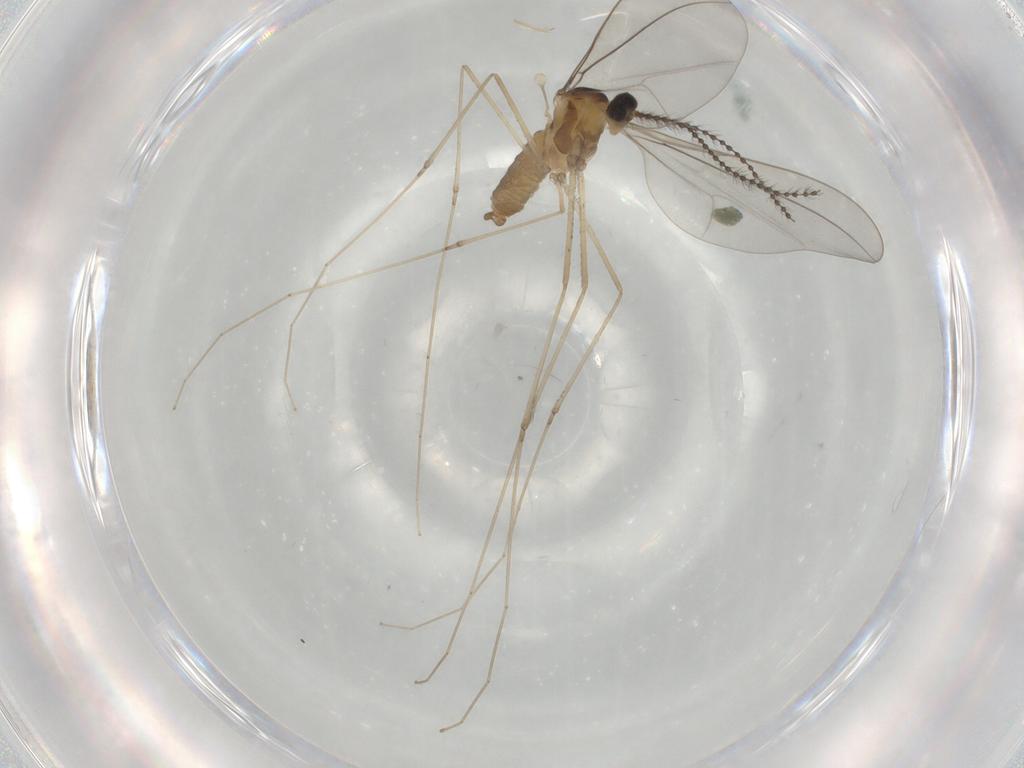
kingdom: Animalia
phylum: Arthropoda
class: Insecta
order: Diptera
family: Cecidomyiidae
